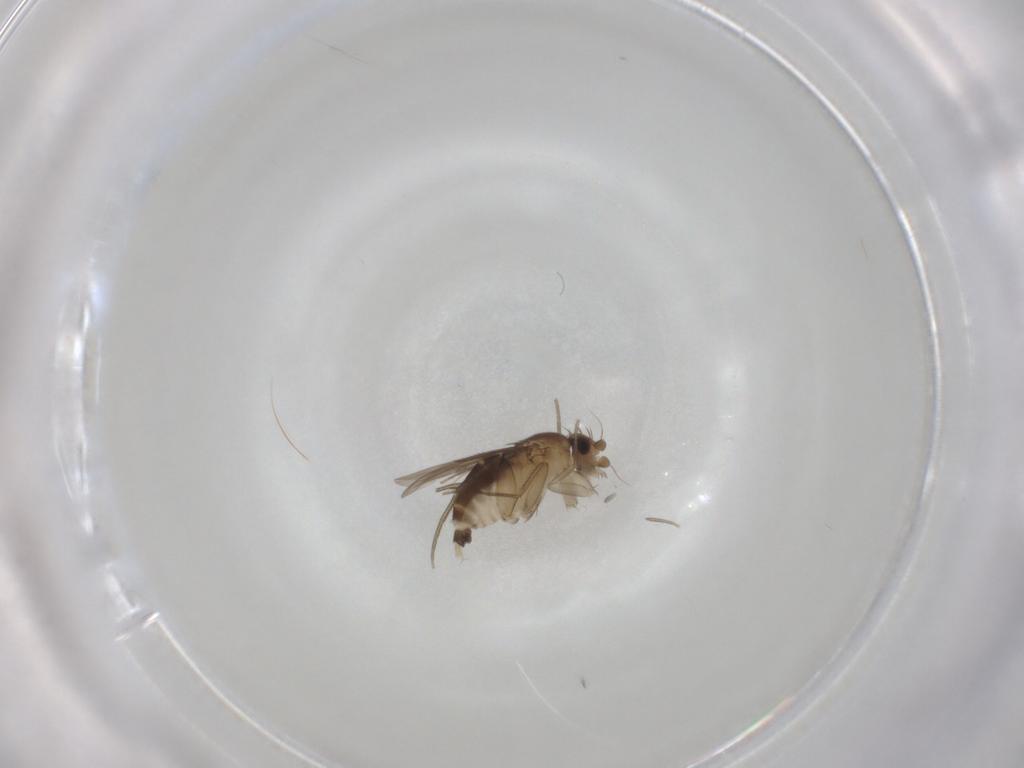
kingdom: Animalia
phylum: Arthropoda
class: Insecta
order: Diptera
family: Phoridae
